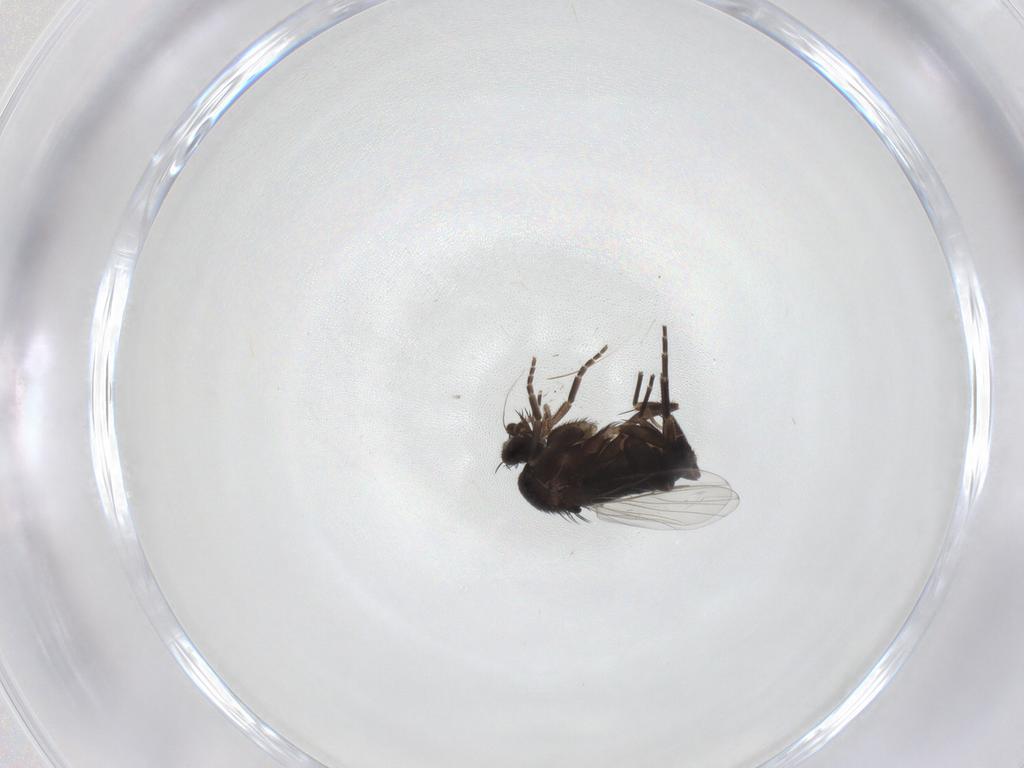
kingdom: Animalia
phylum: Arthropoda
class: Insecta
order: Diptera
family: Phoridae
